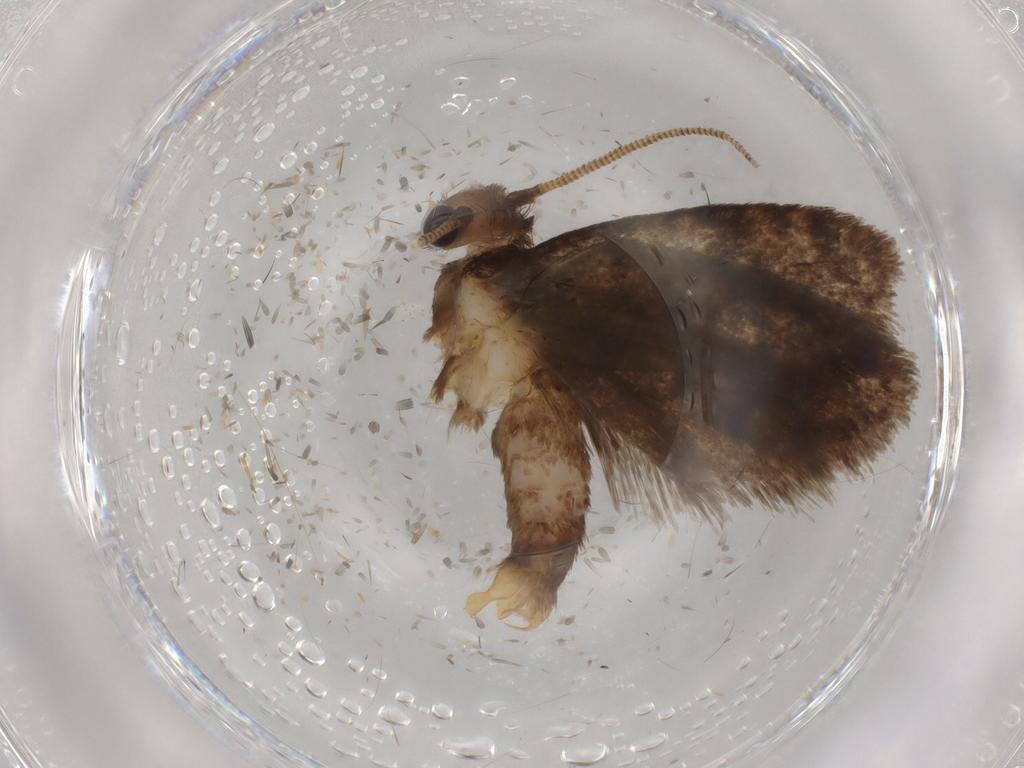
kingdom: Animalia
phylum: Arthropoda
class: Insecta
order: Lepidoptera
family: Tineidae
